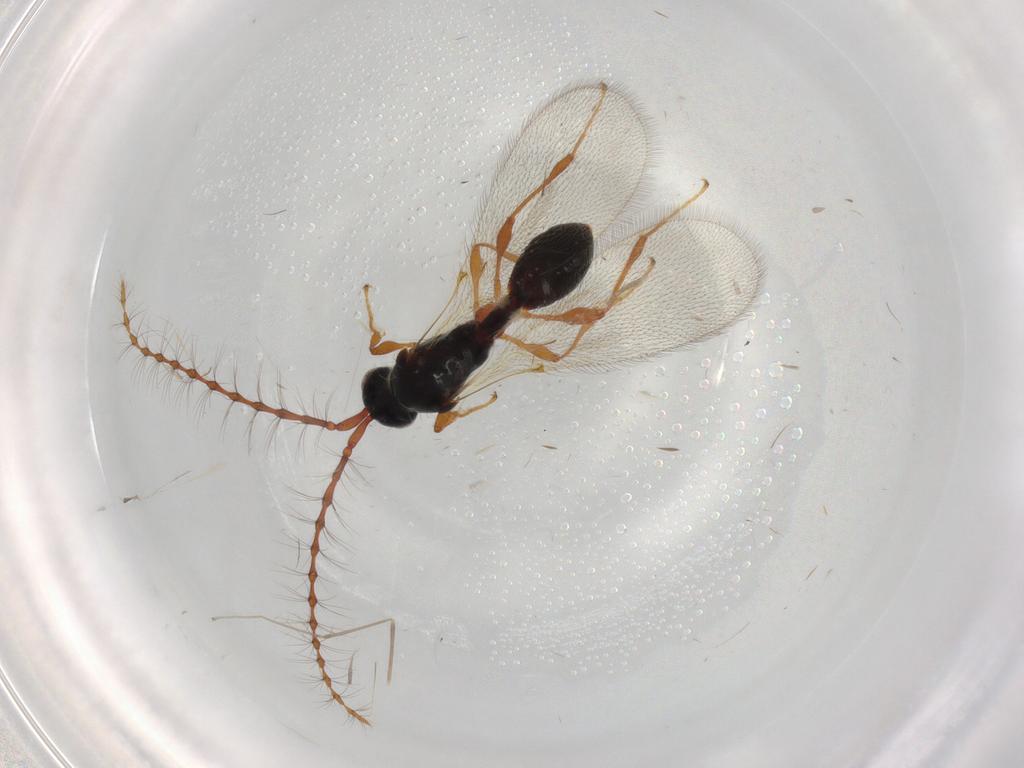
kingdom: Animalia
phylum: Arthropoda
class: Insecta
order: Hymenoptera
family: Diapriidae
